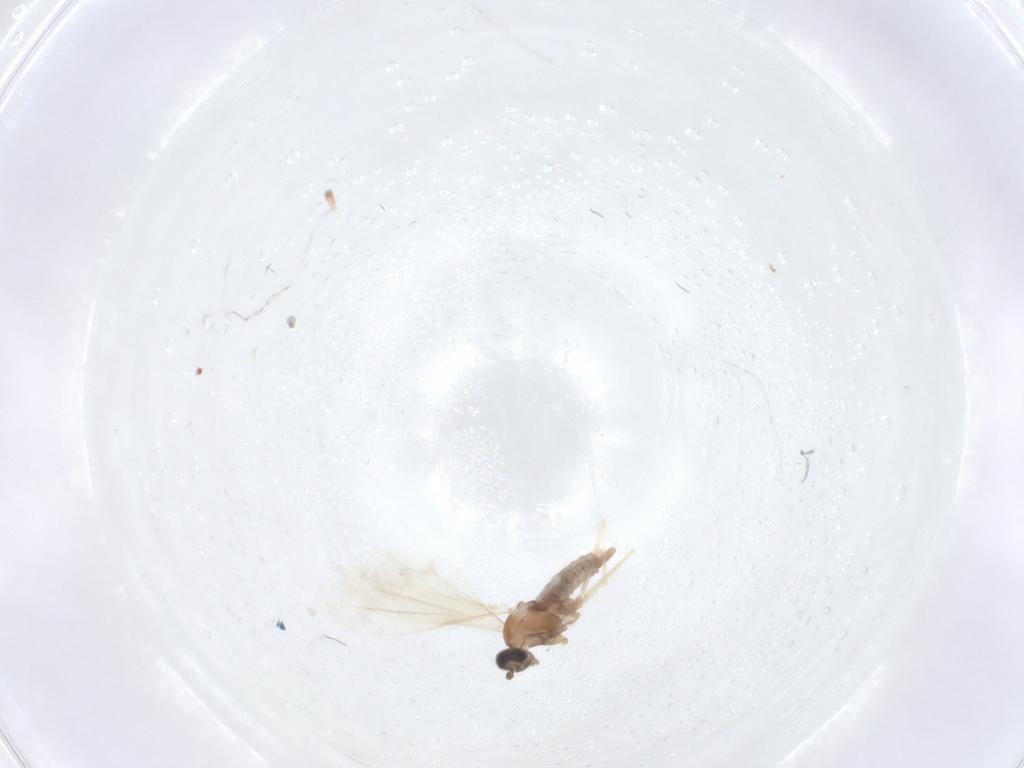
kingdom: Animalia
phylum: Arthropoda
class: Insecta
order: Diptera
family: Cecidomyiidae
